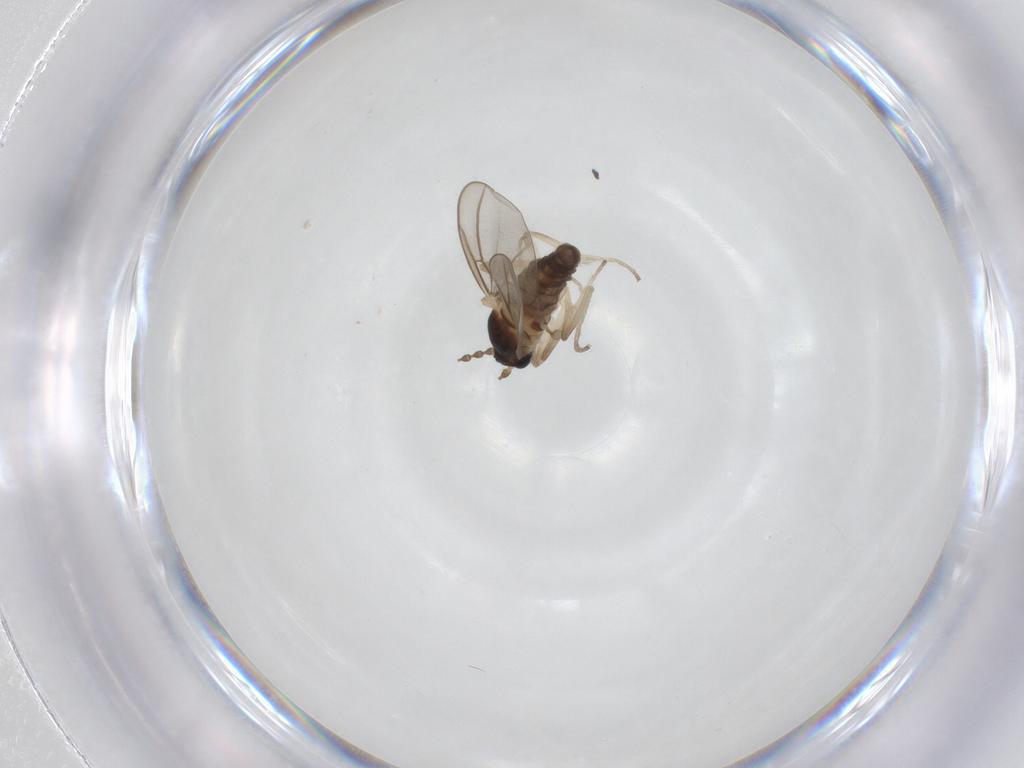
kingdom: Animalia
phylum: Arthropoda
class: Insecta
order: Diptera
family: Cecidomyiidae
